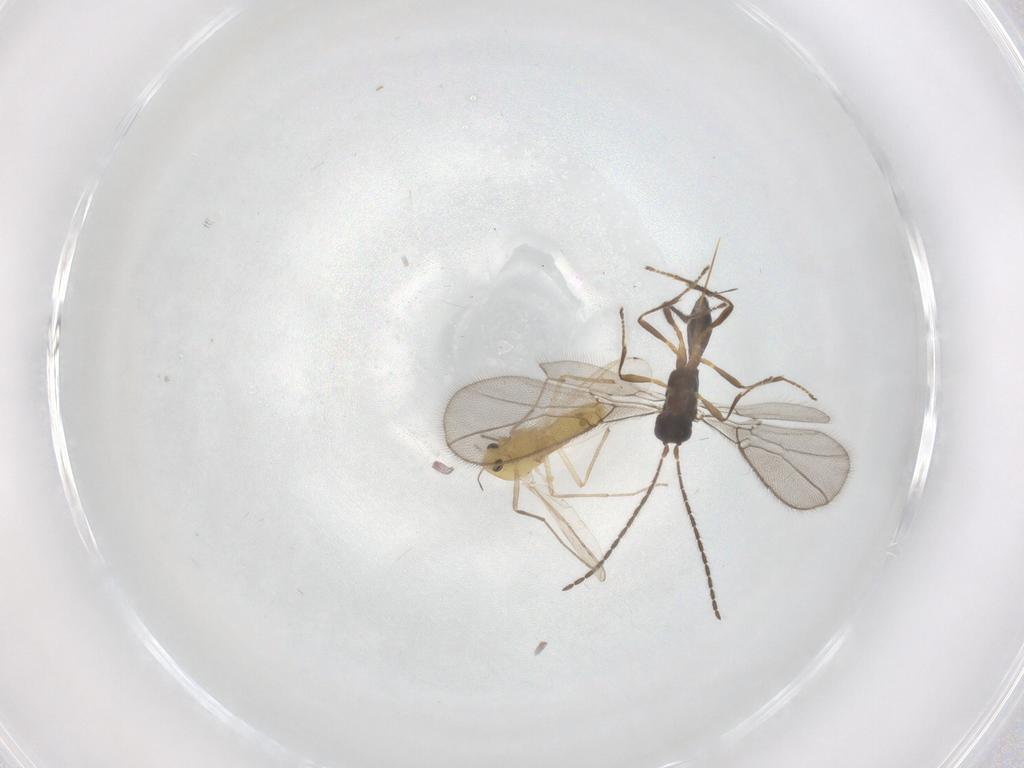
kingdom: Animalia
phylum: Arthropoda
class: Insecta
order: Diptera
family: Chironomidae
